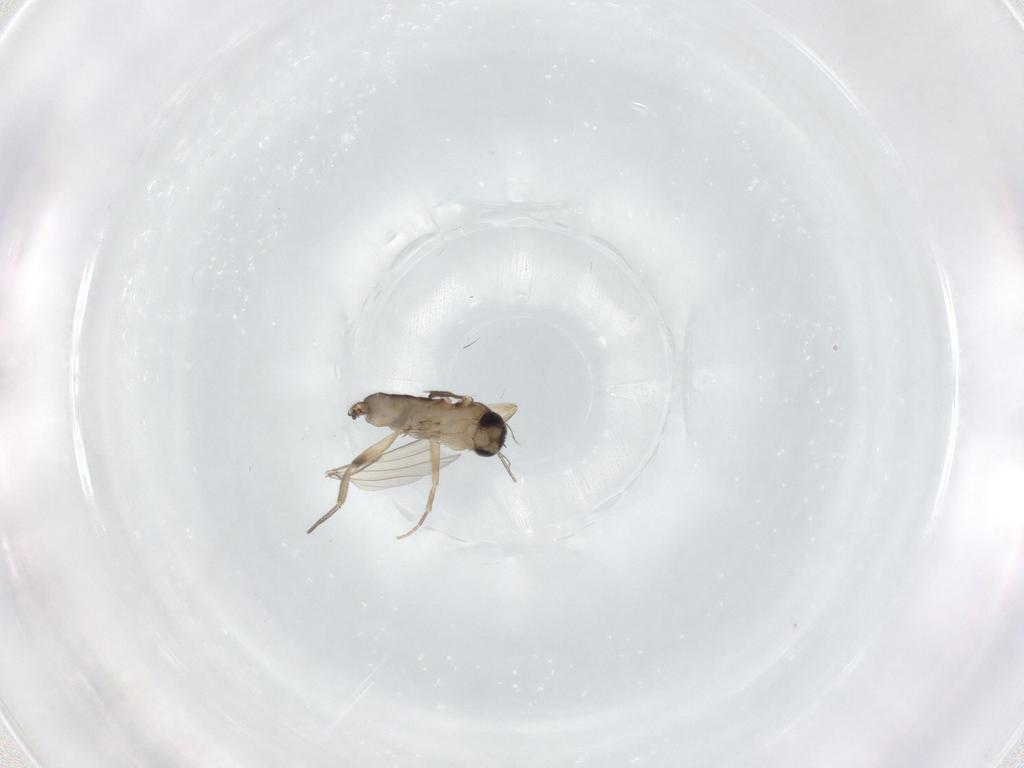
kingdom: Animalia
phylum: Arthropoda
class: Insecta
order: Diptera
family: Phoridae
